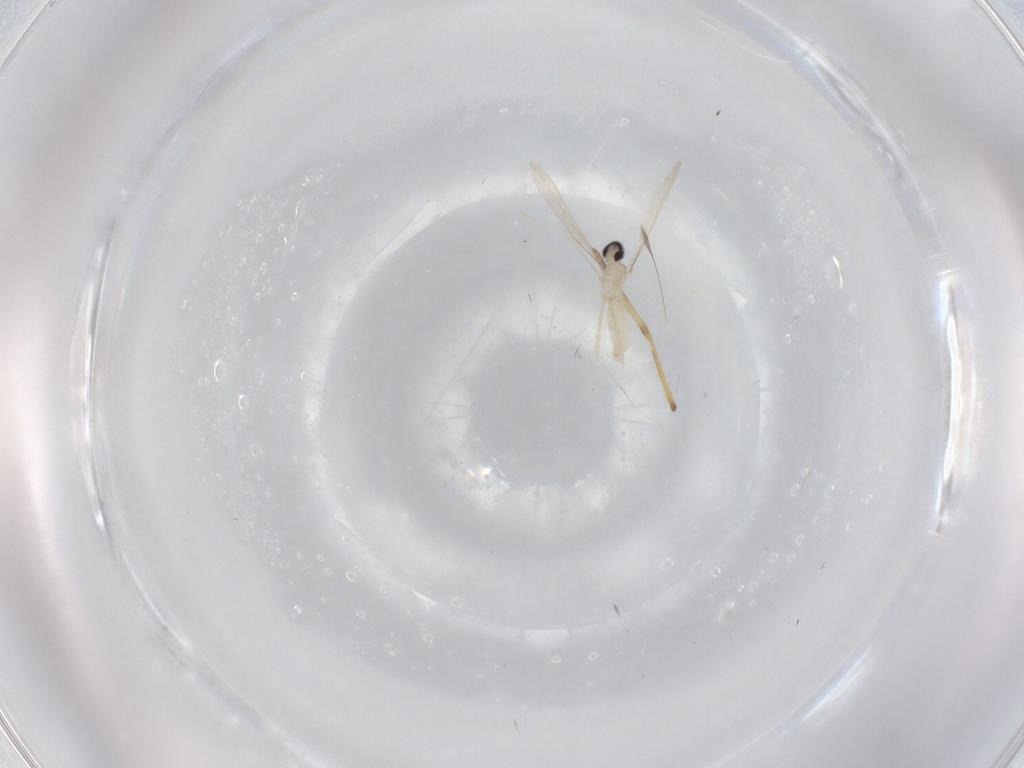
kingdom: Animalia
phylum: Arthropoda
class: Insecta
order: Diptera
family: Cecidomyiidae
